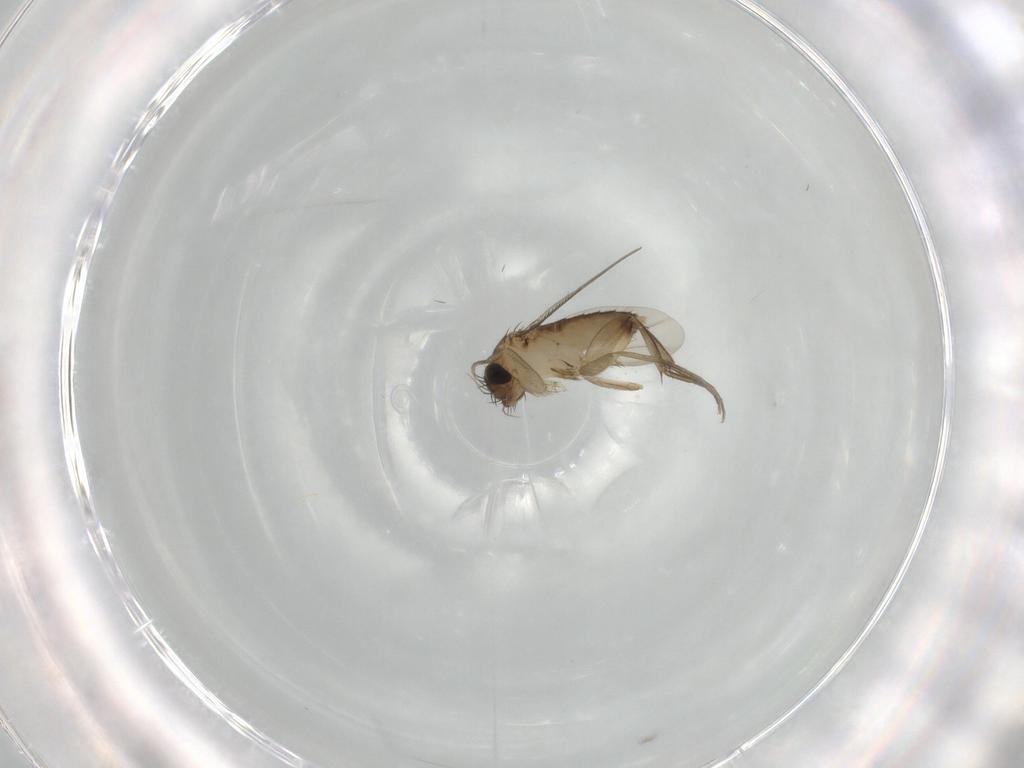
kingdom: Animalia
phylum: Arthropoda
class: Insecta
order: Diptera
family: Phoridae
